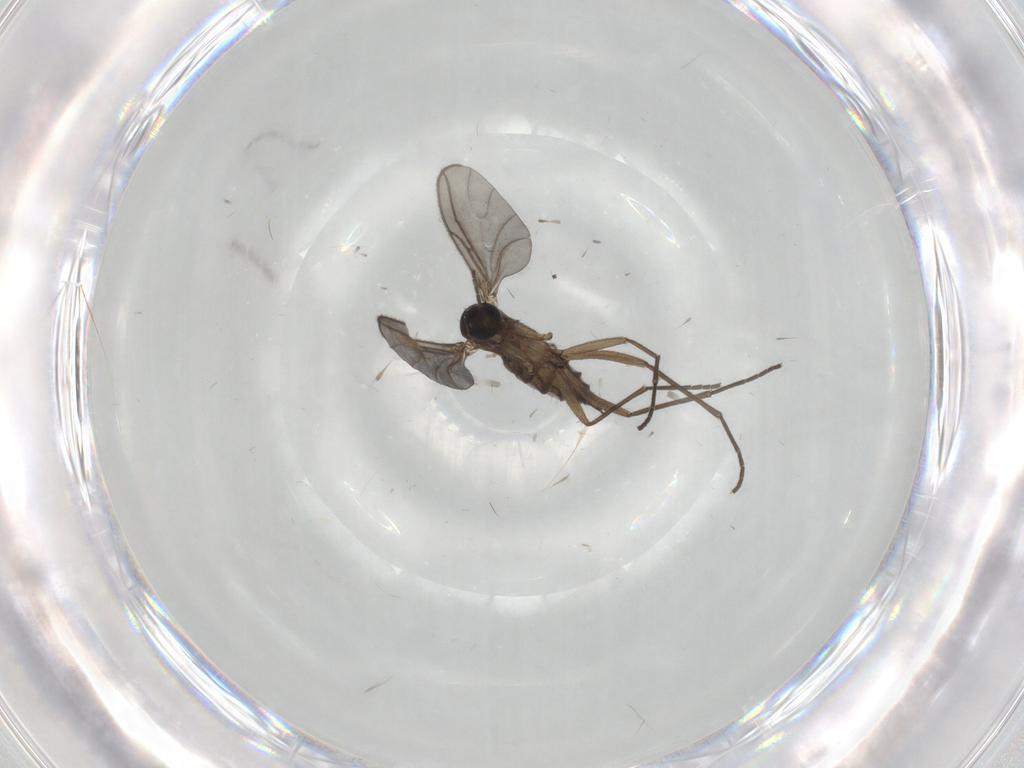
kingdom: Animalia
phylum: Arthropoda
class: Insecta
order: Diptera
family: Sciaridae
